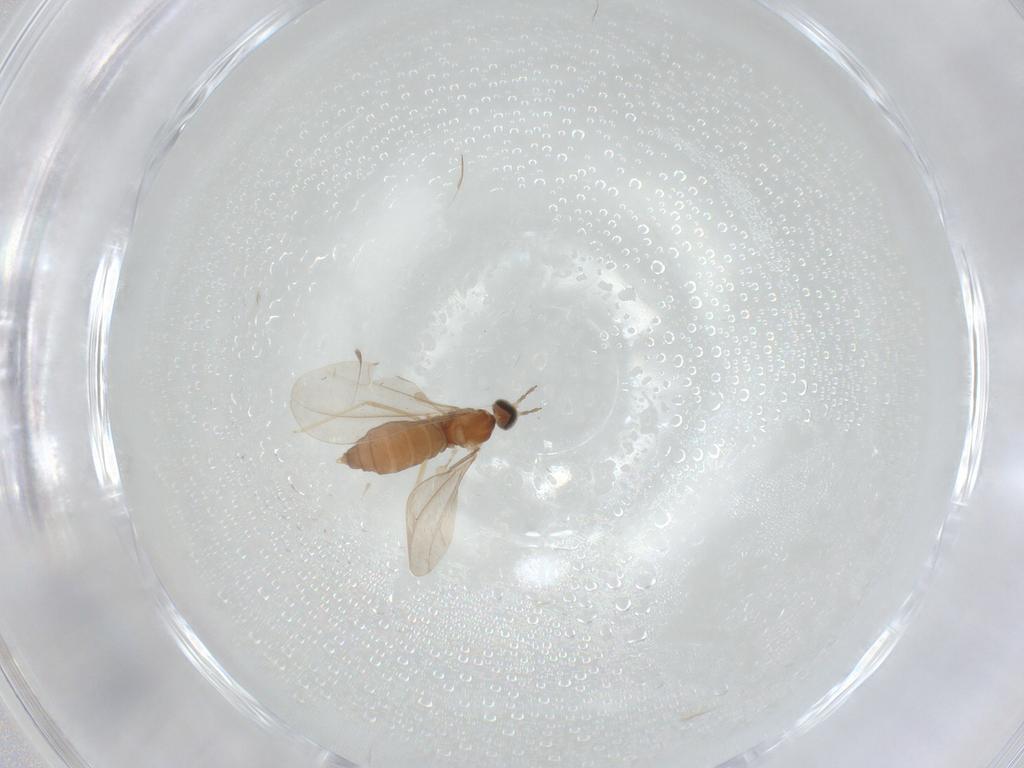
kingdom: Animalia
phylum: Arthropoda
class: Insecta
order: Diptera
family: Cecidomyiidae
